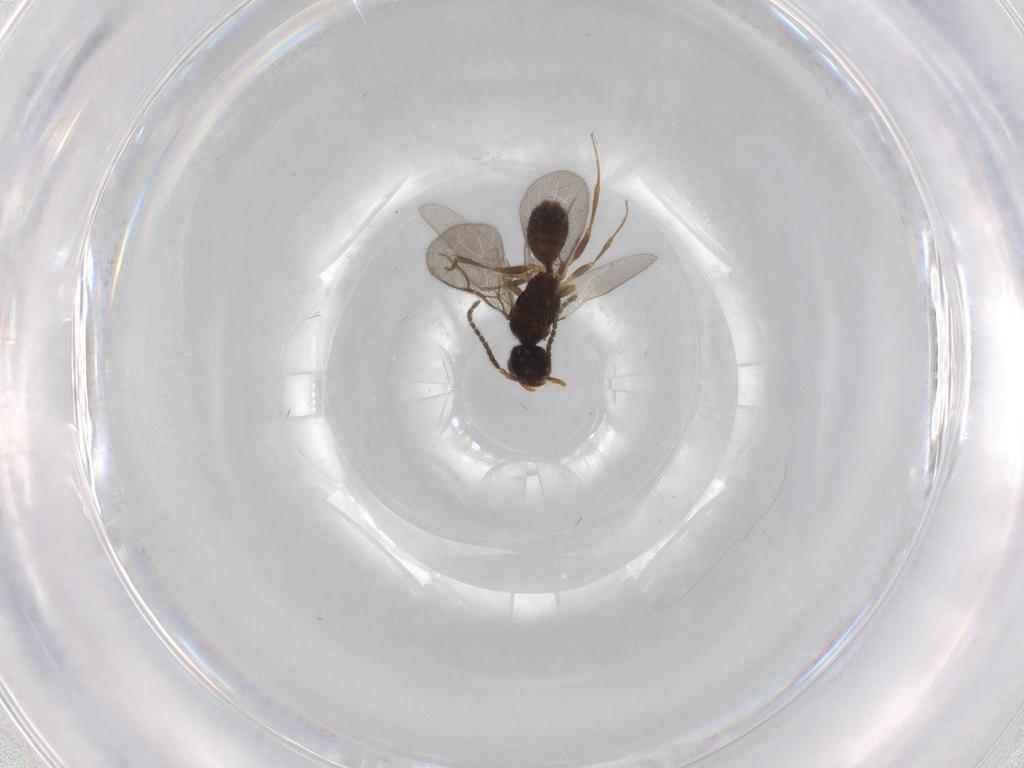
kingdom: Animalia
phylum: Arthropoda
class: Insecta
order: Hymenoptera
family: Bethylidae
